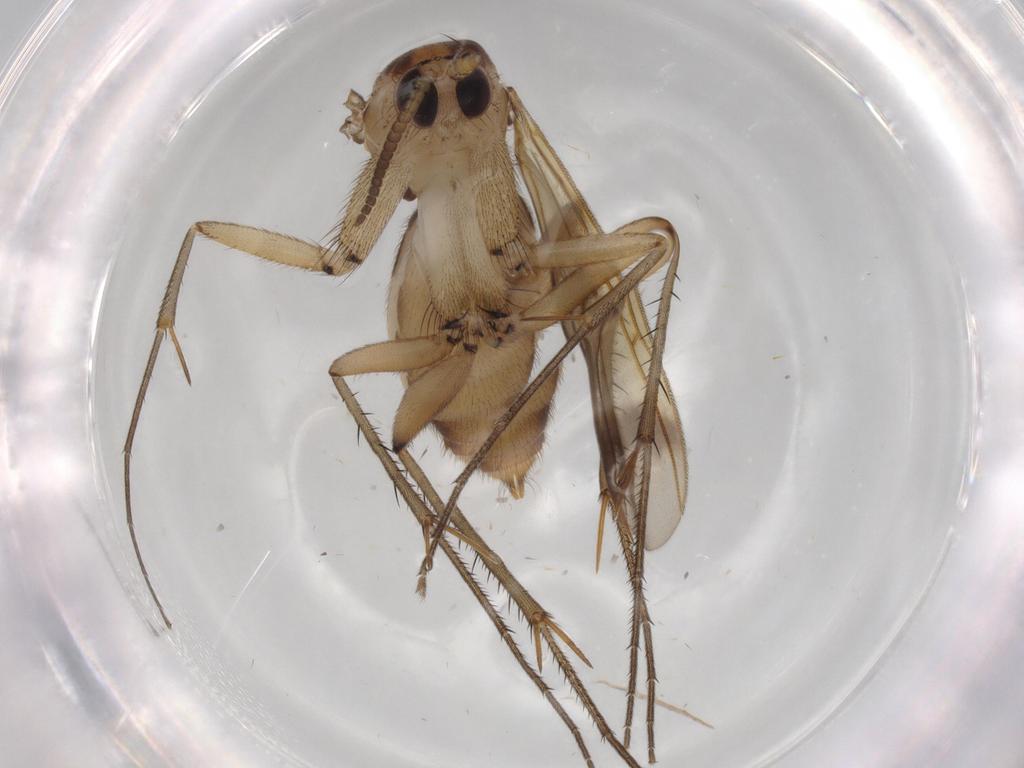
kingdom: Animalia
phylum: Arthropoda
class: Insecta
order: Diptera
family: Mycetophilidae
